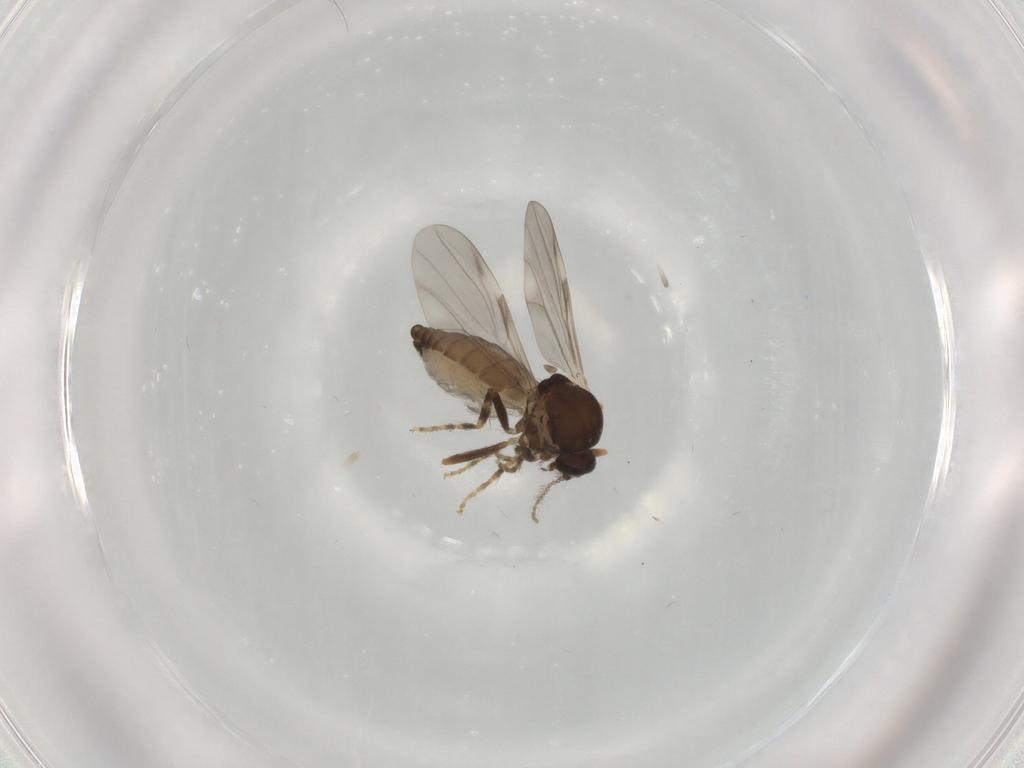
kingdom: Animalia
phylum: Arthropoda
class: Insecta
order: Diptera
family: Ceratopogonidae
